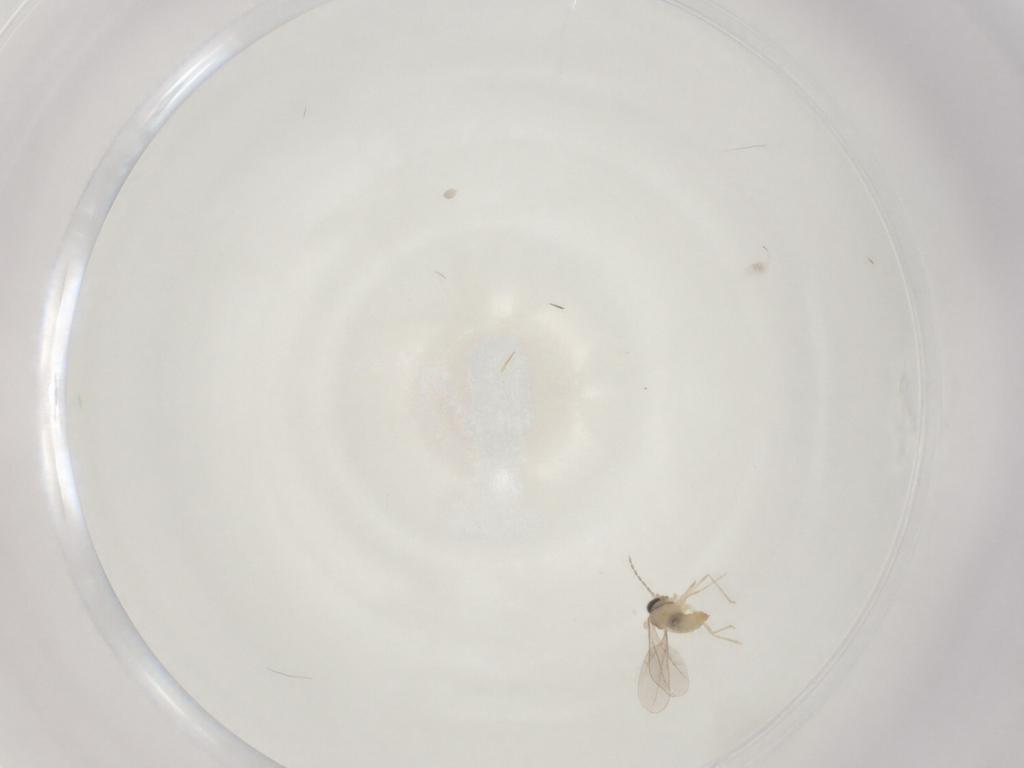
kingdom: Animalia
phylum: Arthropoda
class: Insecta
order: Diptera
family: Cecidomyiidae
